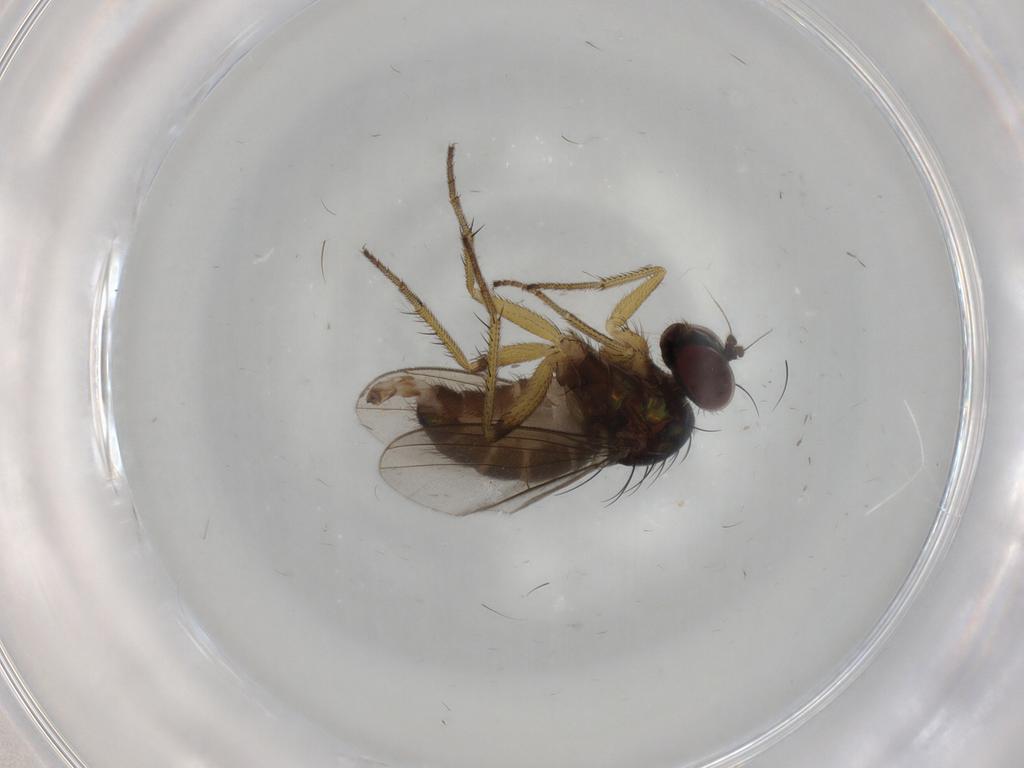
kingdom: Animalia
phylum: Arthropoda
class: Insecta
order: Diptera
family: Dolichopodidae
